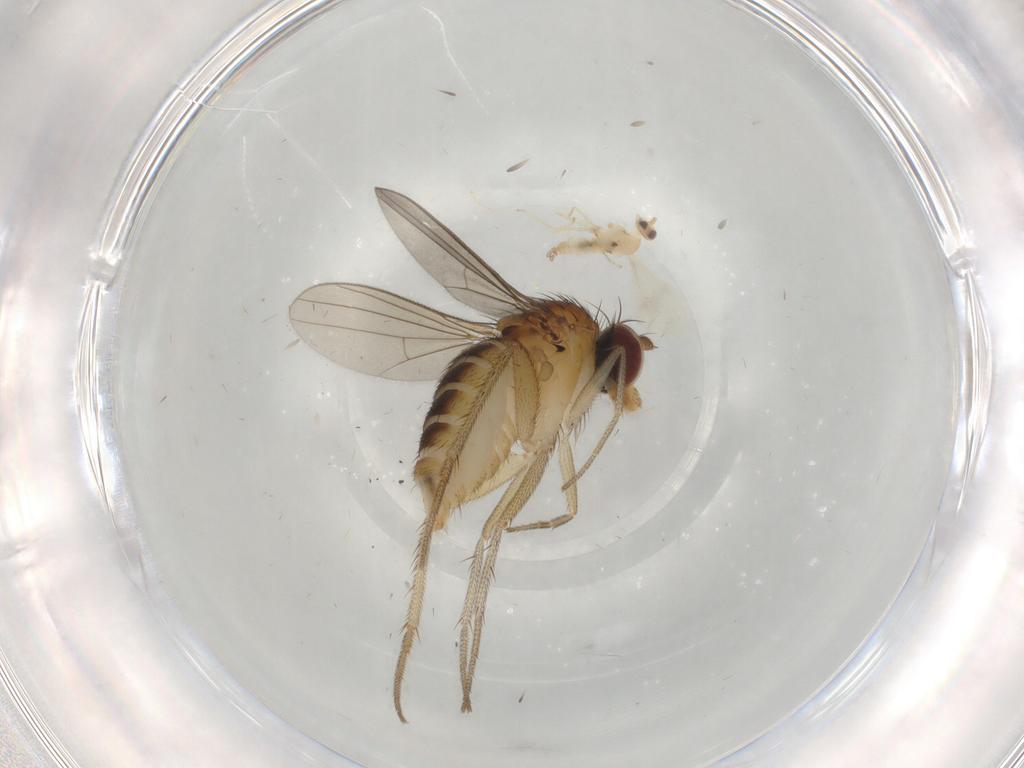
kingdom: Animalia
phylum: Arthropoda
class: Insecta
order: Diptera
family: Dolichopodidae
